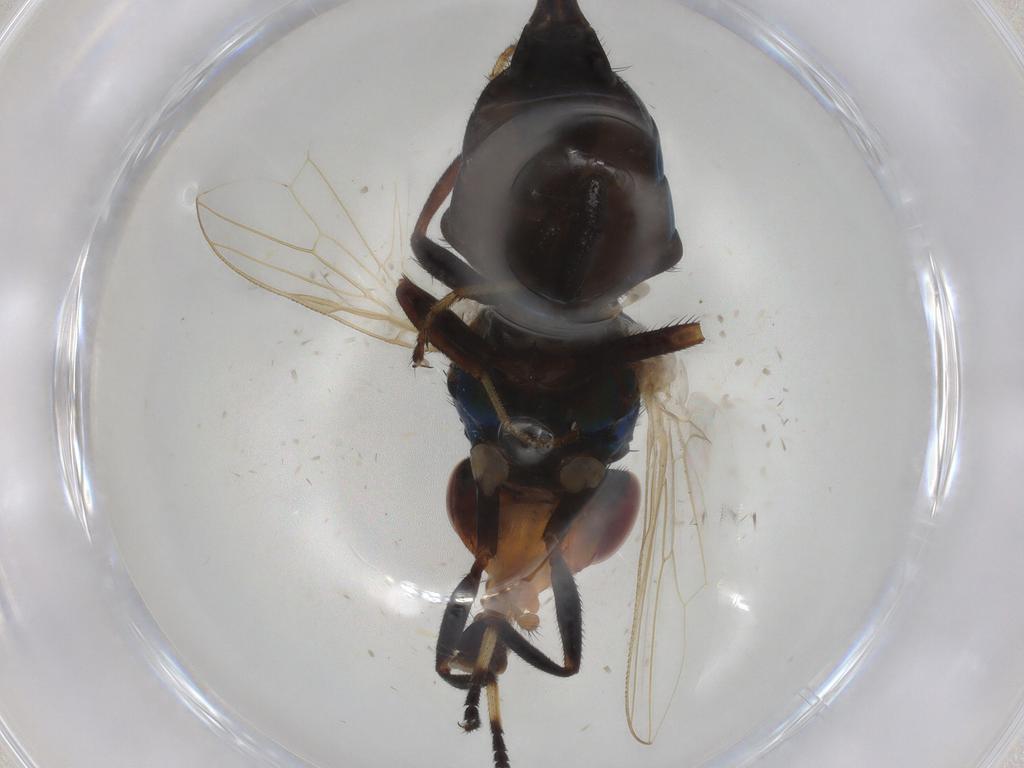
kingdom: Animalia
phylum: Arthropoda
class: Insecta
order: Diptera
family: Ulidiidae
